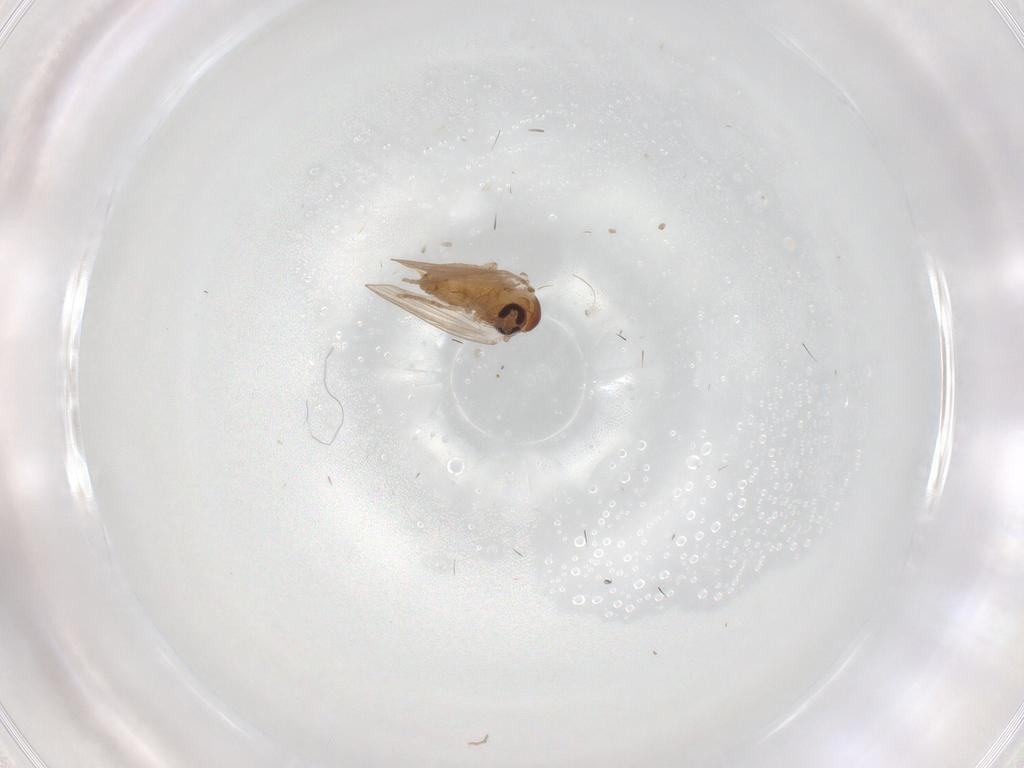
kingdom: Animalia
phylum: Arthropoda
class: Insecta
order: Diptera
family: Psychodidae
